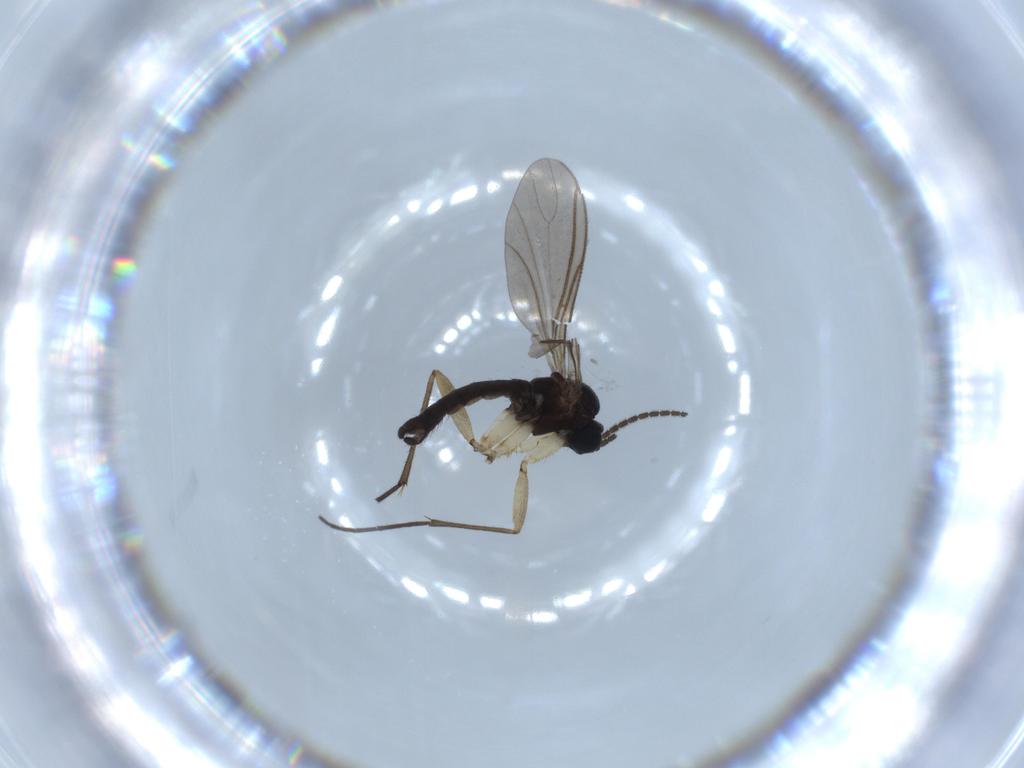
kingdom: Animalia
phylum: Arthropoda
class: Insecta
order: Diptera
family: Sciaridae
